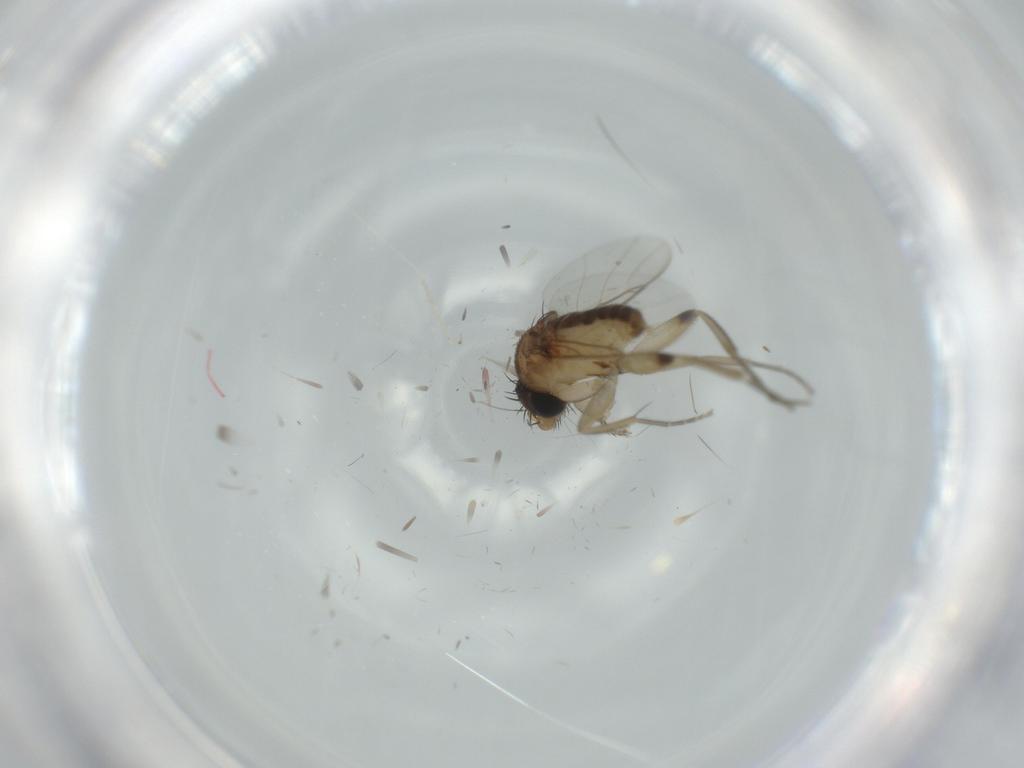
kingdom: Animalia
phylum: Arthropoda
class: Insecta
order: Diptera
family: Phoridae
